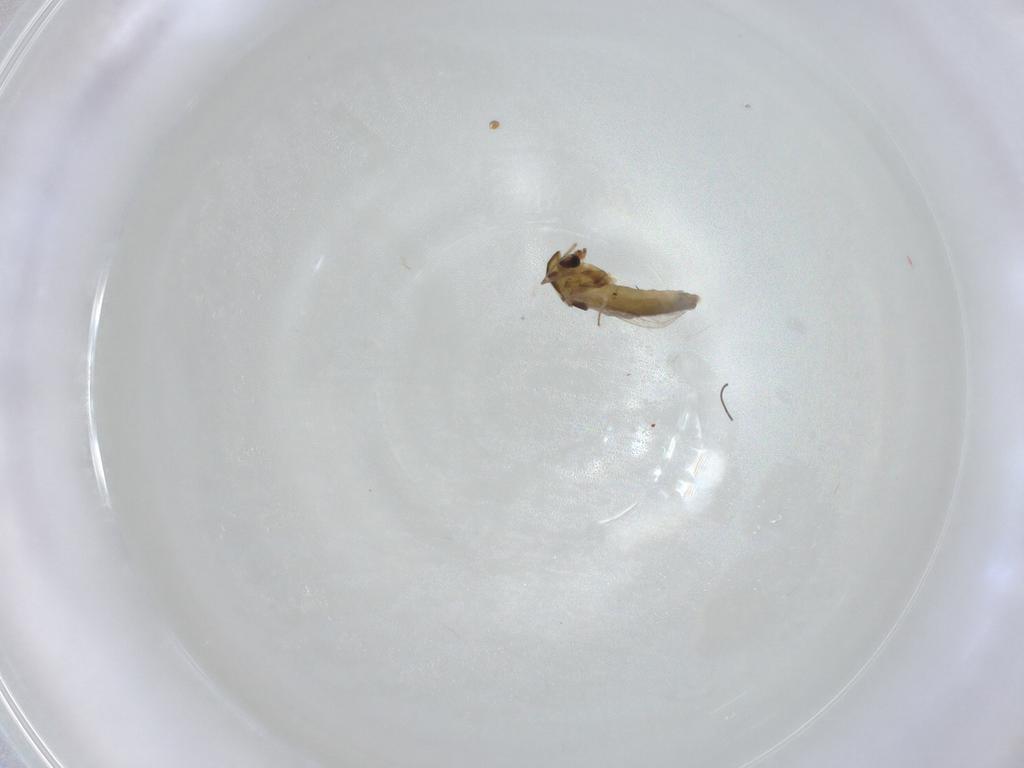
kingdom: Animalia
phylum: Arthropoda
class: Insecta
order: Diptera
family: Chironomidae
